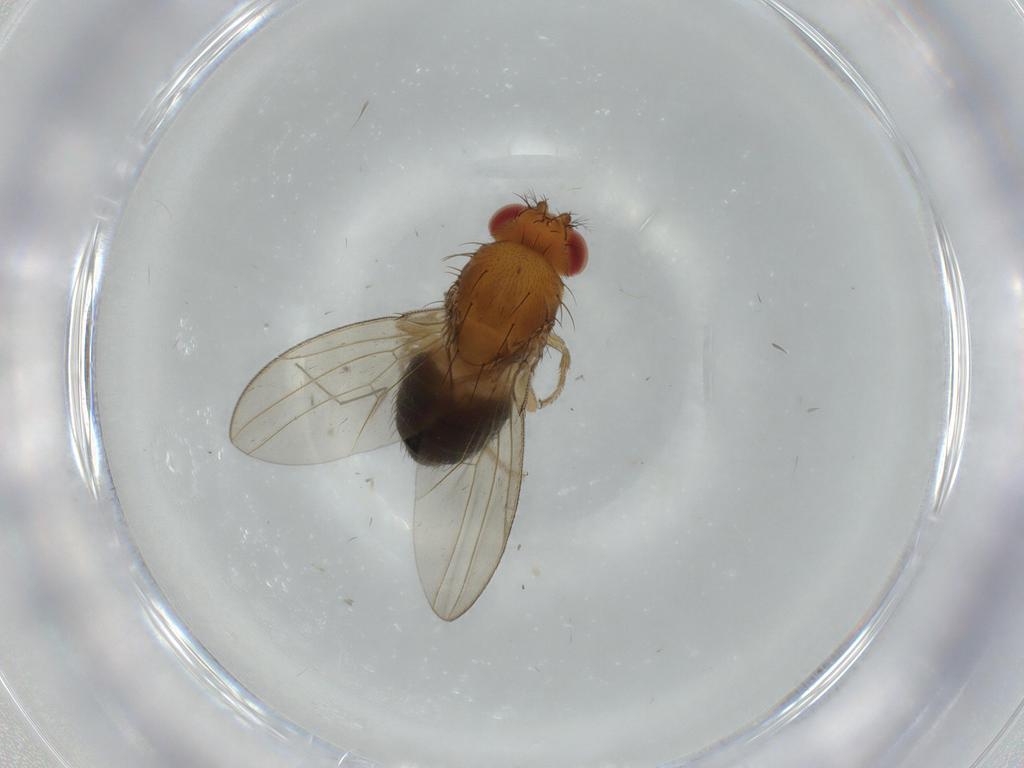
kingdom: Animalia
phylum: Arthropoda
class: Insecta
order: Diptera
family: Drosophilidae
